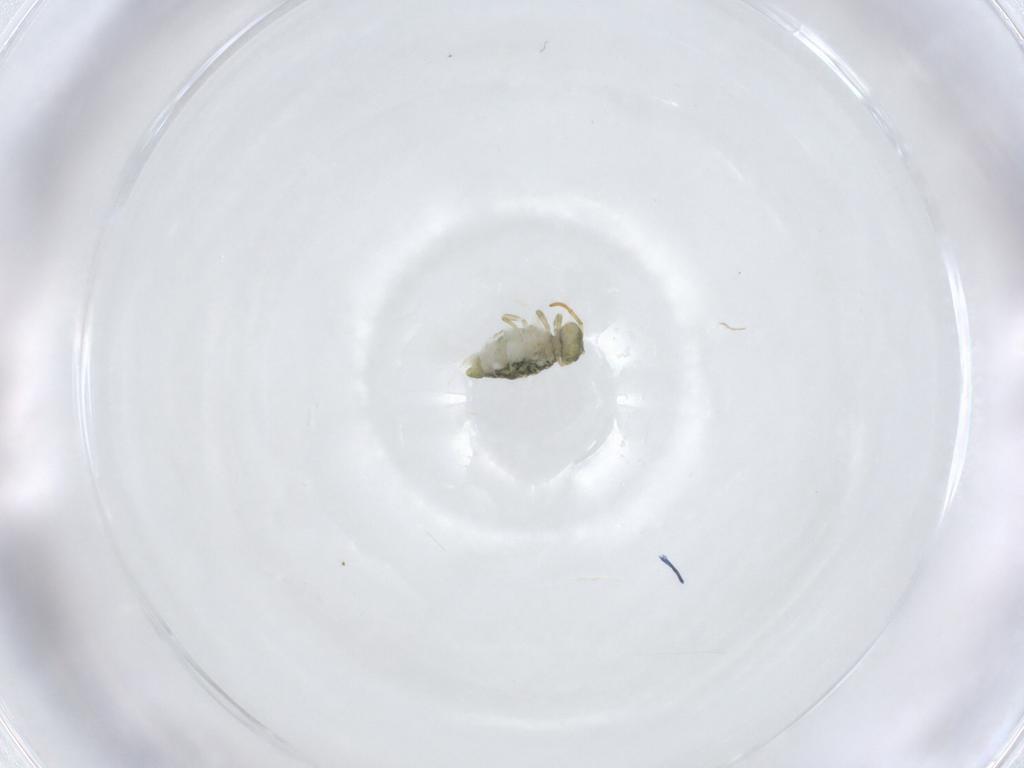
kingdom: Animalia
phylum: Arthropoda
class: Collembola
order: Symphypleona
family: Katiannidae
